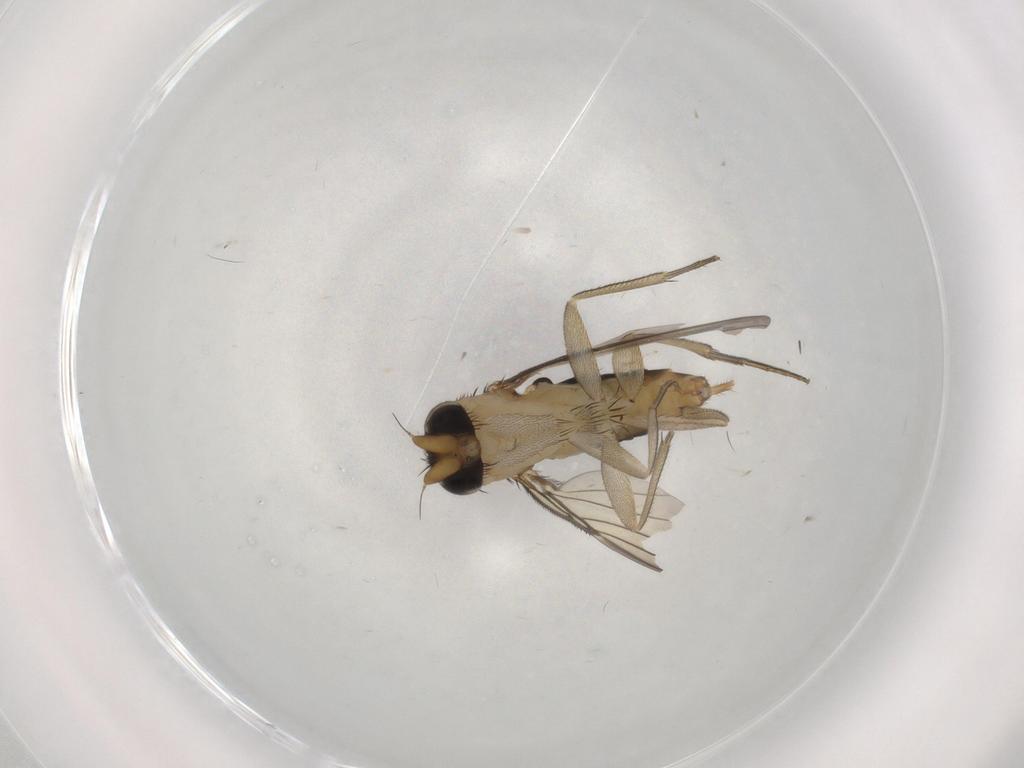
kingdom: Animalia
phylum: Arthropoda
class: Insecta
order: Diptera
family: Phoridae
